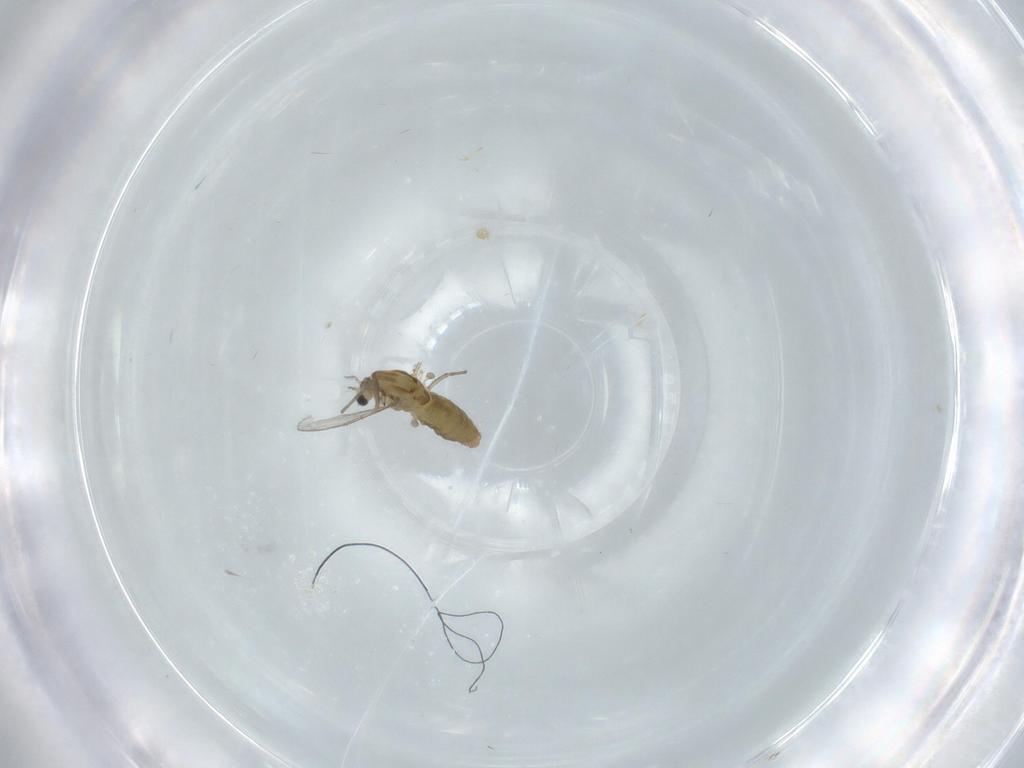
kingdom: Animalia
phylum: Arthropoda
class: Insecta
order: Diptera
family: Chironomidae
